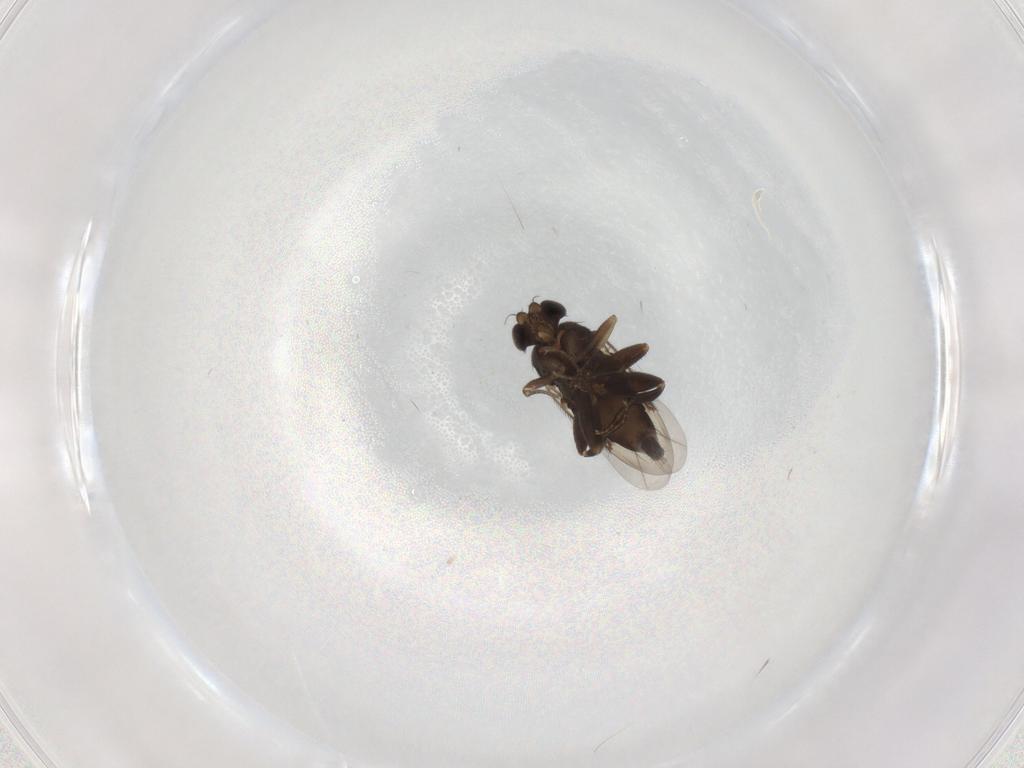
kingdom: Animalia
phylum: Arthropoda
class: Insecta
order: Diptera
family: Phoridae
